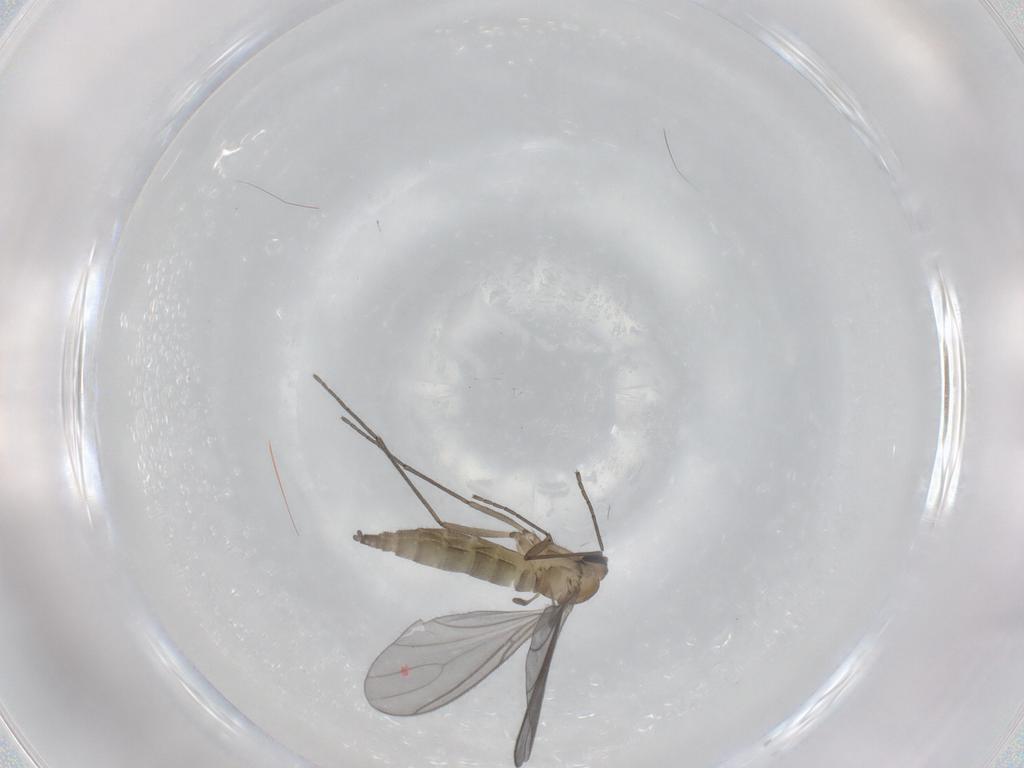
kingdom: Animalia
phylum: Arthropoda
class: Insecta
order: Diptera
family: Sciaridae
